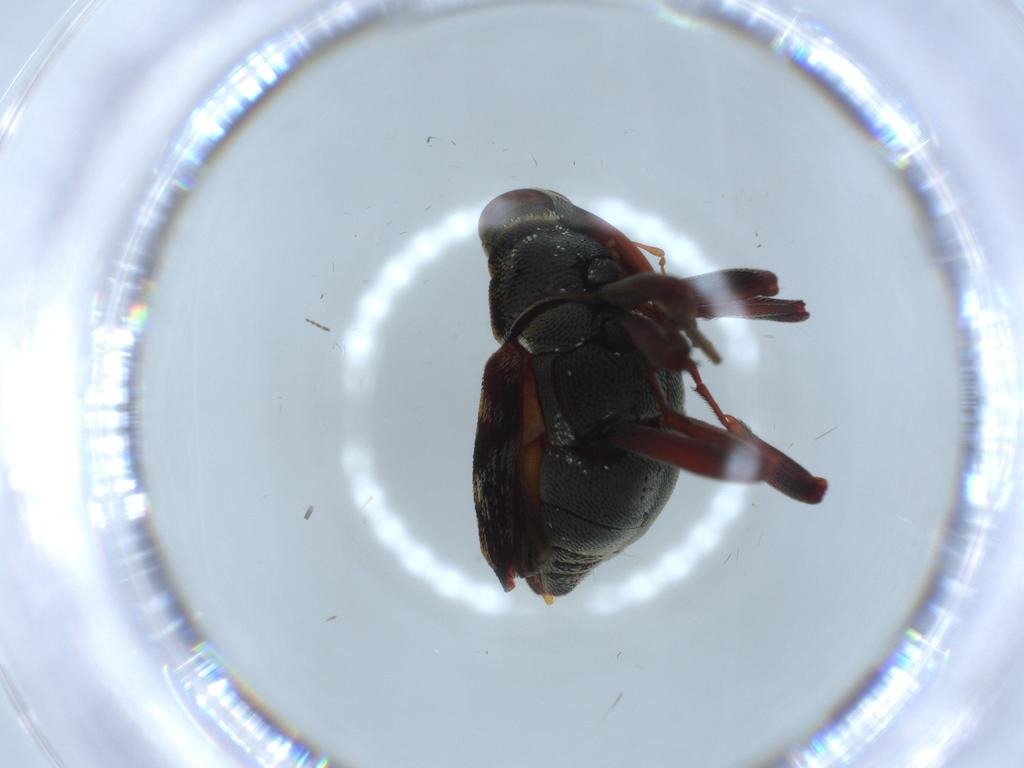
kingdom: Animalia
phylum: Arthropoda
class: Insecta
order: Coleoptera
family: Curculionidae
